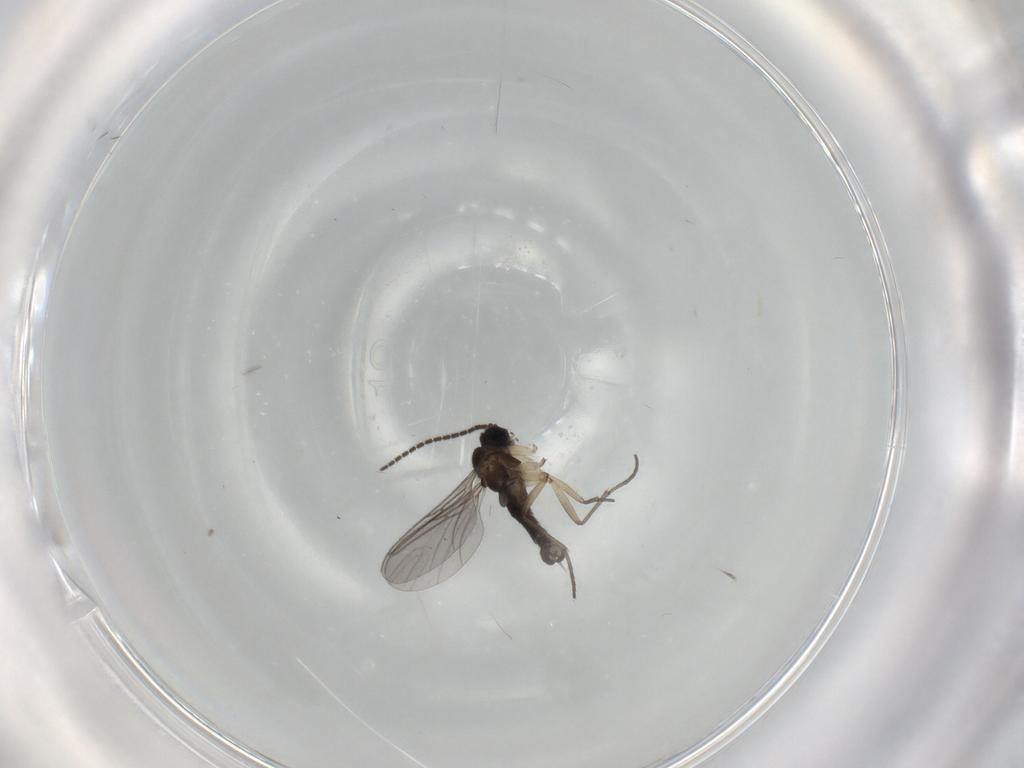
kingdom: Animalia
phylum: Arthropoda
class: Insecta
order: Diptera
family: Sciaridae
